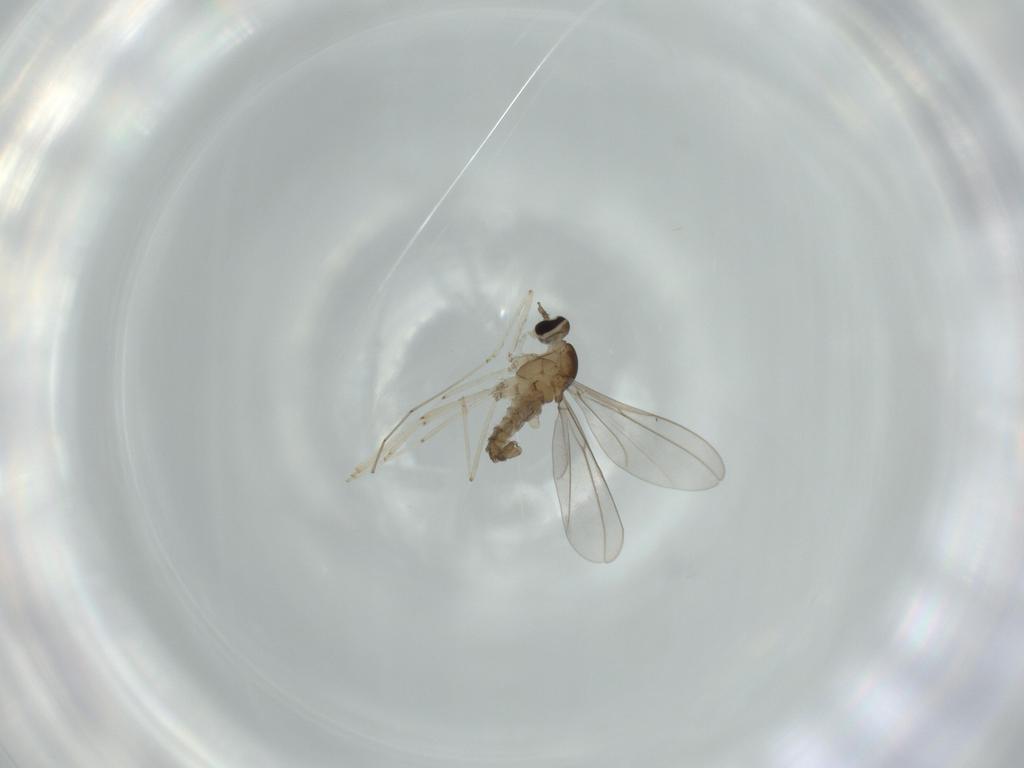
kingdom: Animalia
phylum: Arthropoda
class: Insecta
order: Diptera
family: Cecidomyiidae
